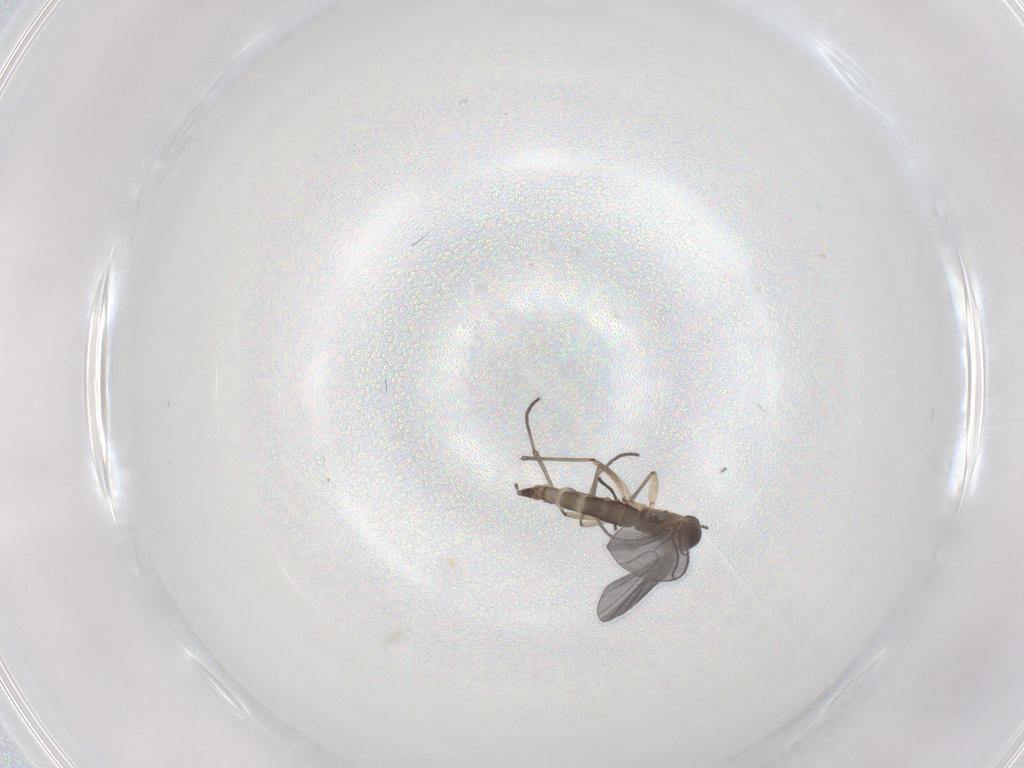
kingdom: Animalia
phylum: Arthropoda
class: Insecta
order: Diptera
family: Sciaridae
